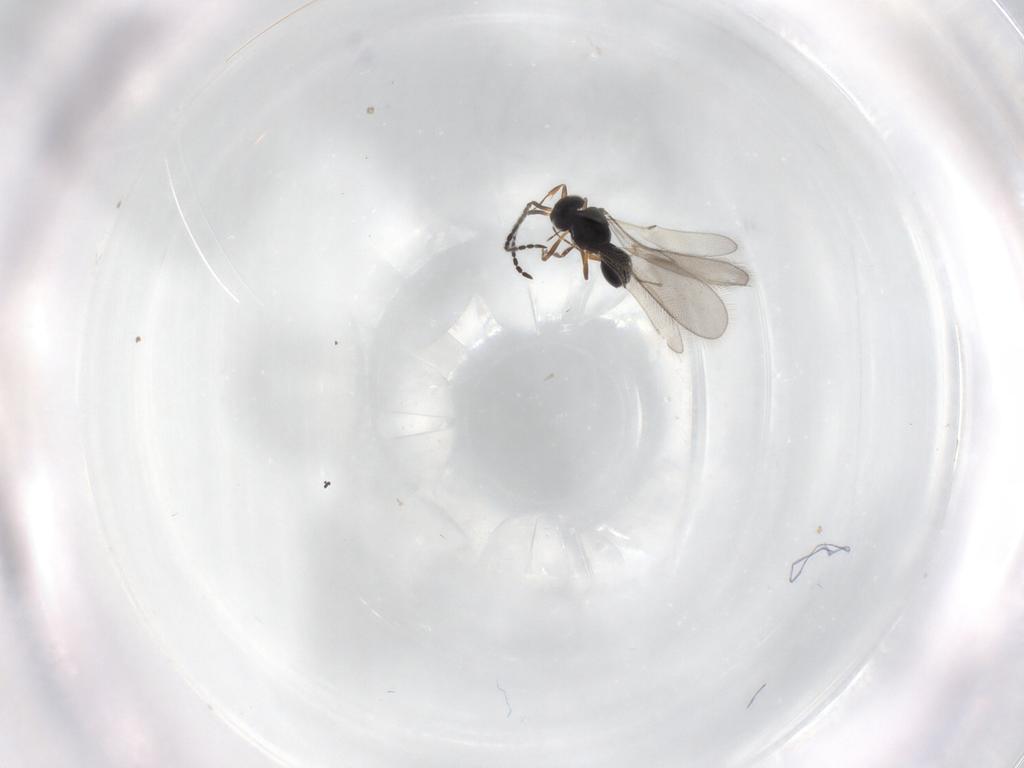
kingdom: Animalia
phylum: Arthropoda
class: Insecta
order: Hymenoptera
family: Scelionidae
